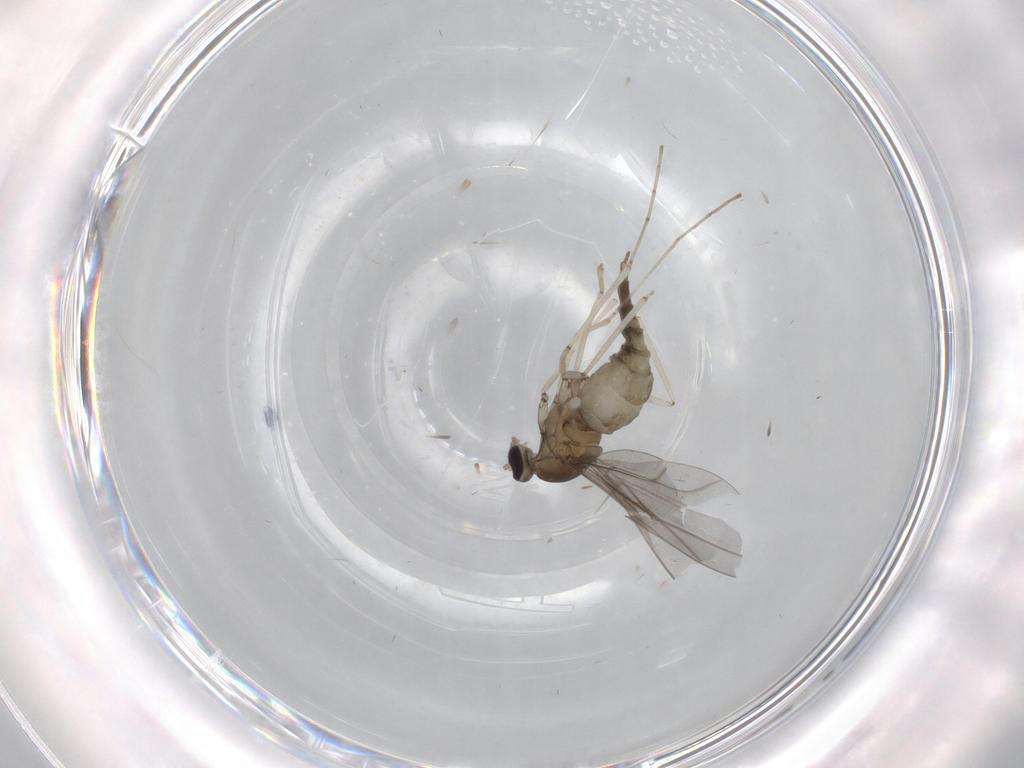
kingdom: Animalia
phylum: Arthropoda
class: Insecta
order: Diptera
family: Cecidomyiidae
